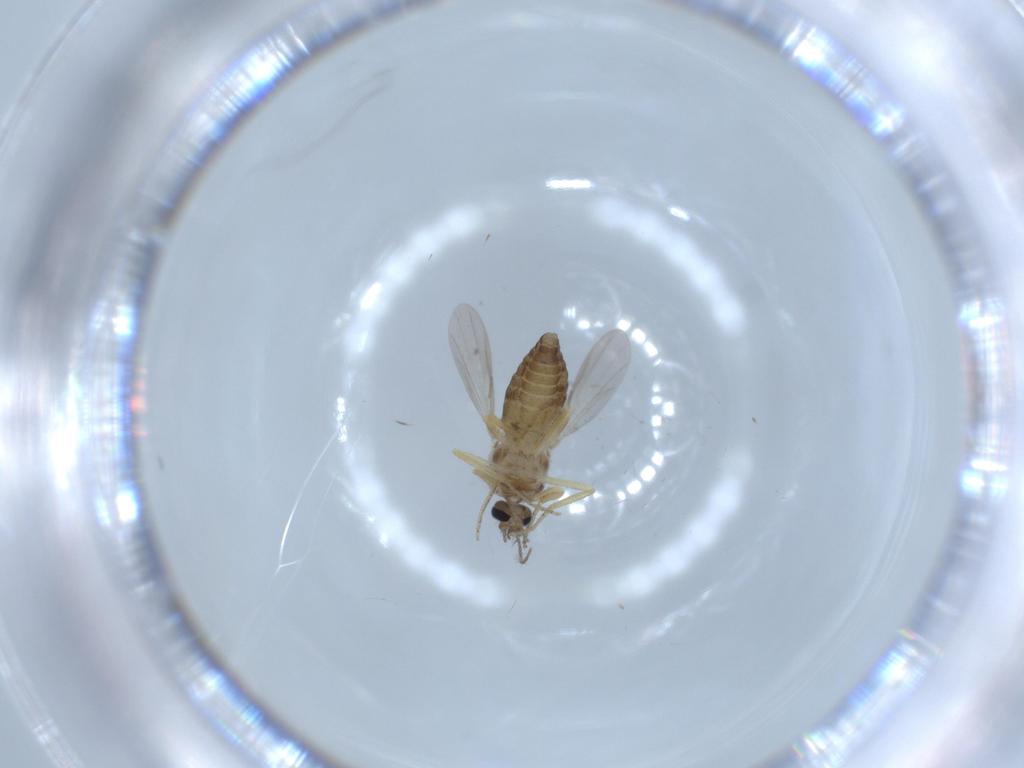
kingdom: Animalia
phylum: Arthropoda
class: Insecta
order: Diptera
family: Ceratopogonidae
